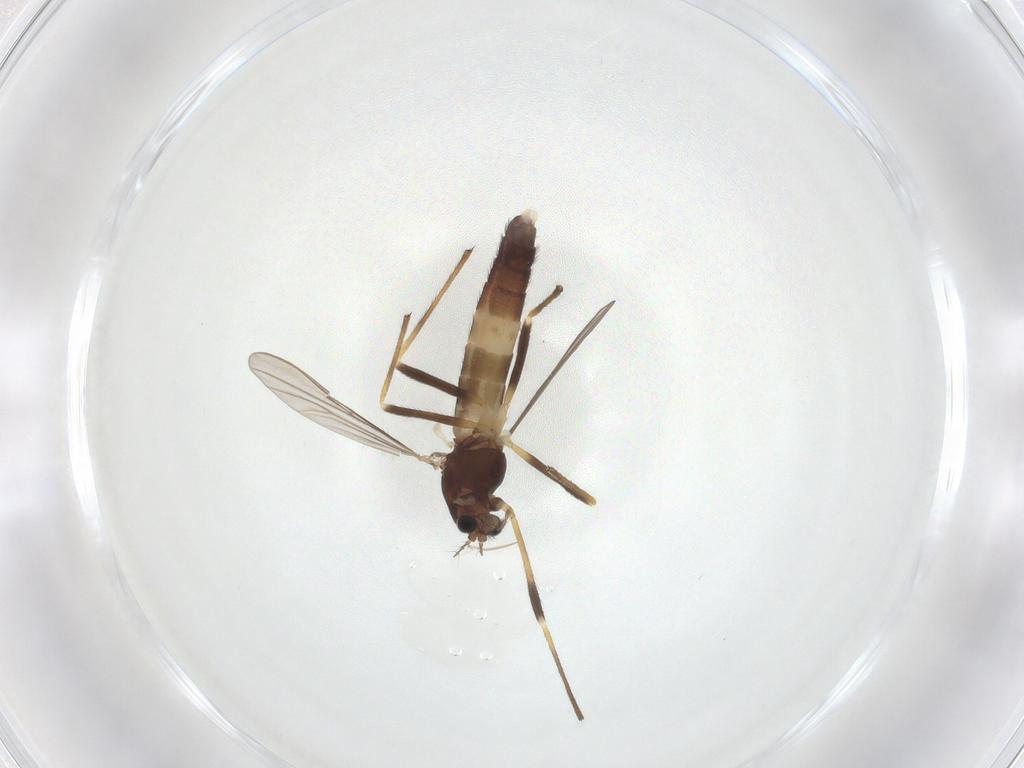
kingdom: Animalia
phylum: Arthropoda
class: Insecta
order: Diptera
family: Chironomidae
